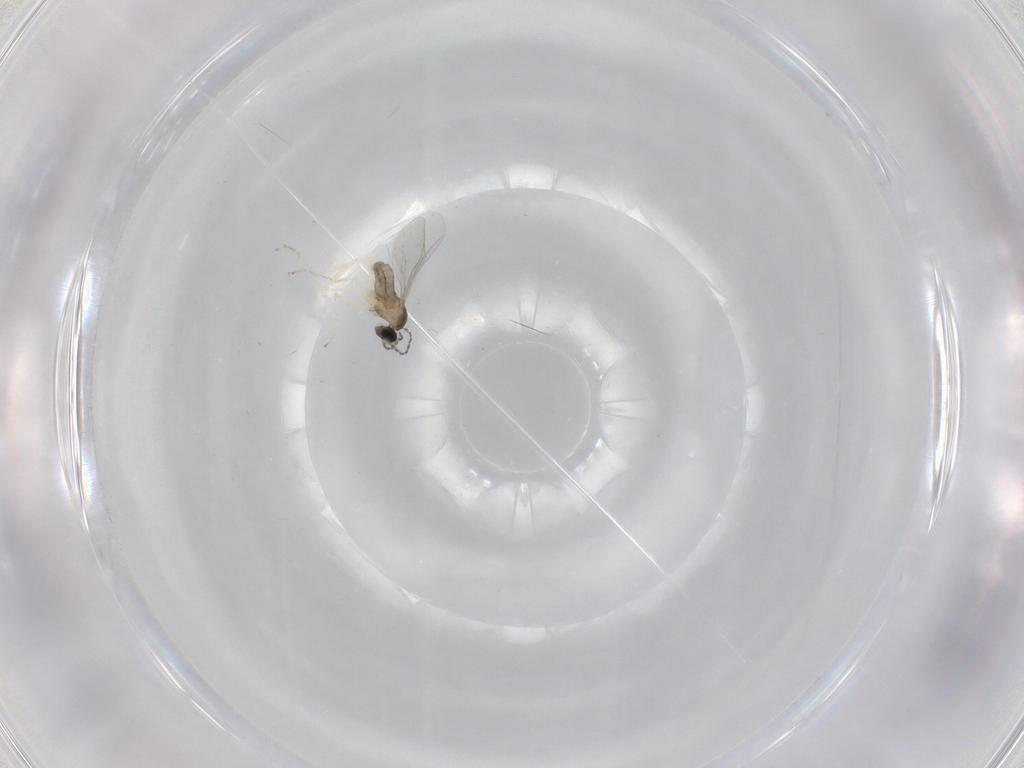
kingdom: Animalia
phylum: Arthropoda
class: Insecta
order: Diptera
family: Cecidomyiidae
